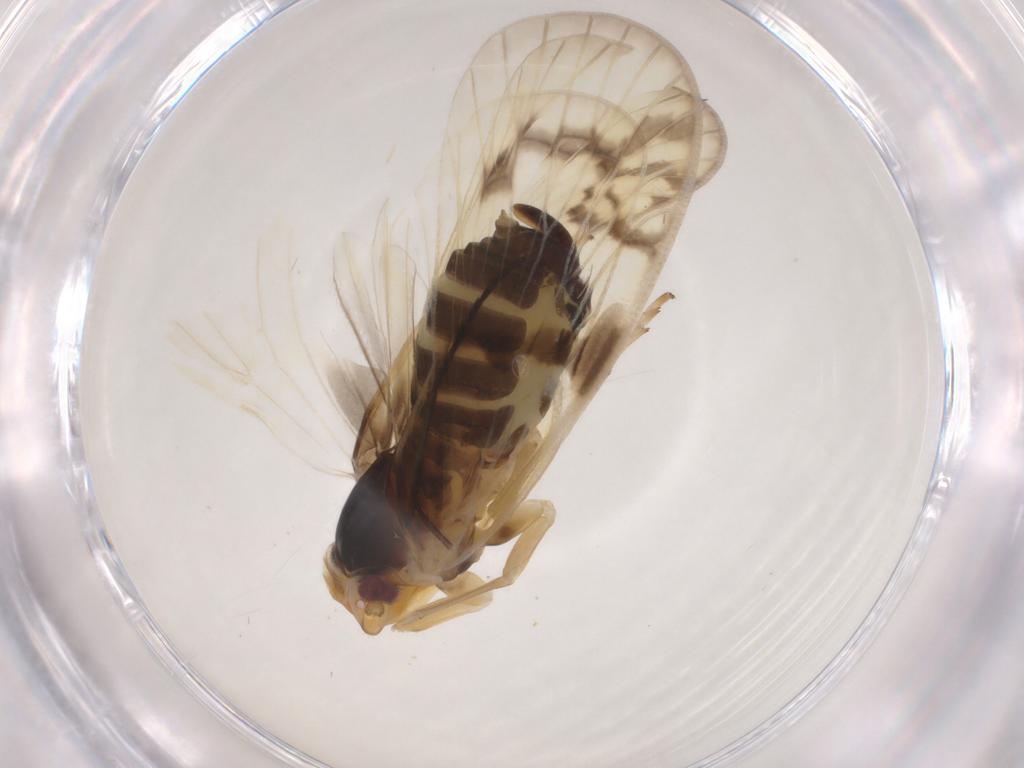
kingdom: Animalia
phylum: Arthropoda
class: Insecta
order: Hemiptera
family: Cixiidae
